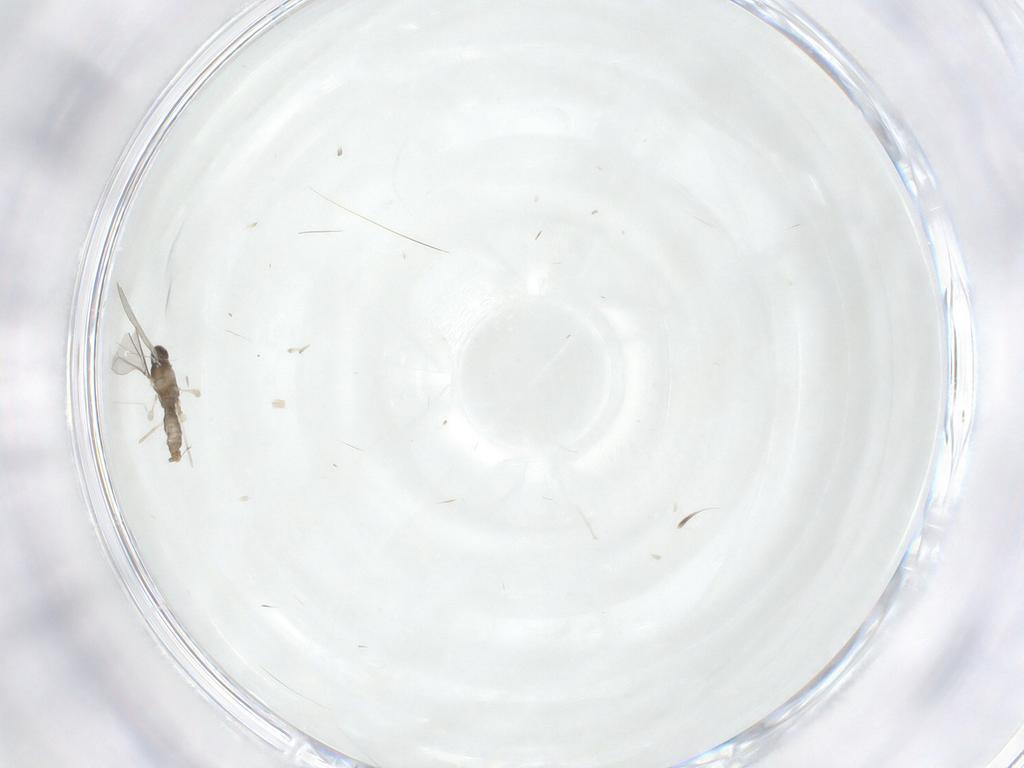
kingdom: Animalia
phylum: Arthropoda
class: Insecta
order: Diptera
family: Cecidomyiidae
